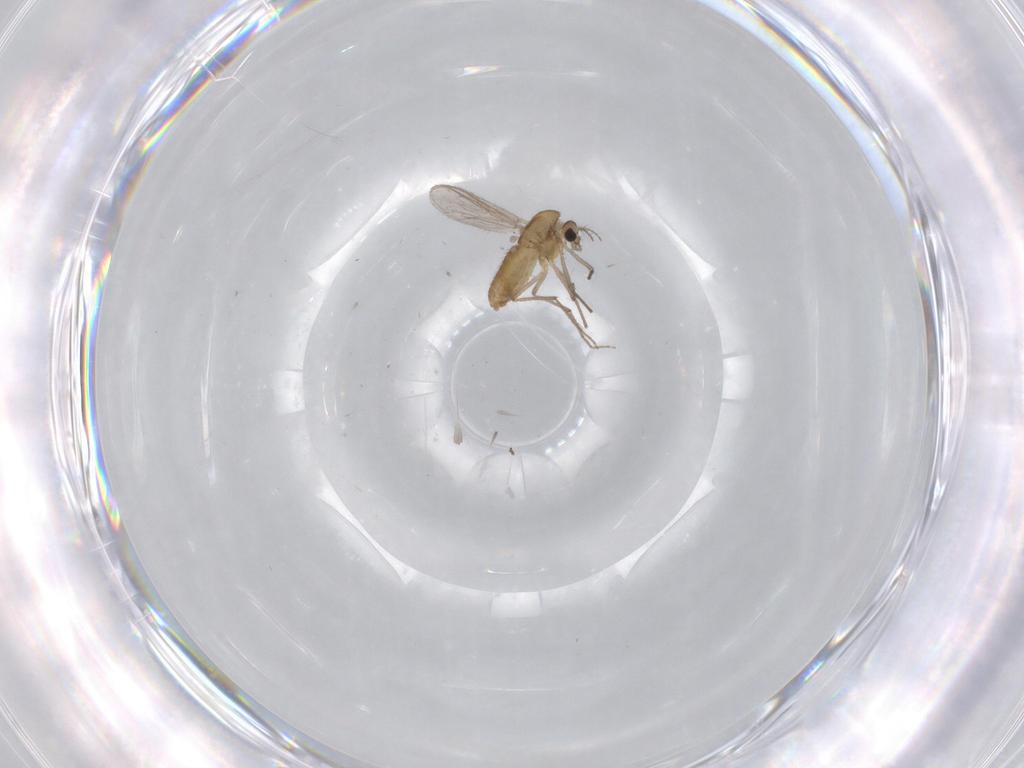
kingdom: Animalia
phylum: Arthropoda
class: Insecta
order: Diptera
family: Chironomidae
